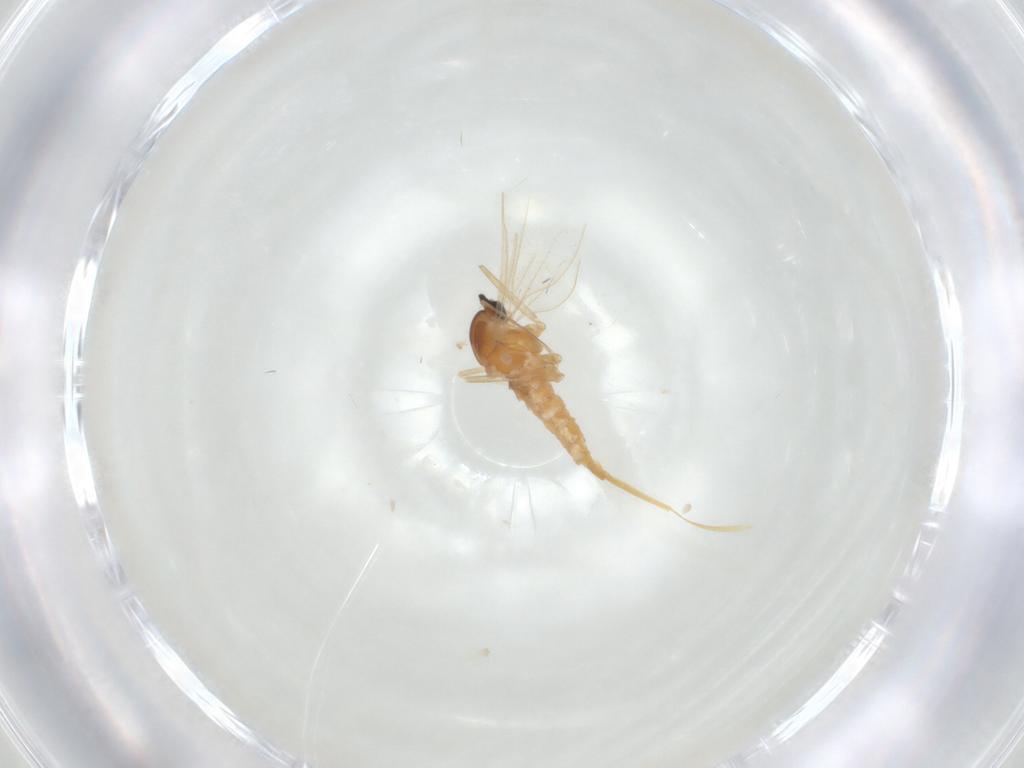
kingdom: Animalia
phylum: Arthropoda
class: Insecta
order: Diptera
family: Cecidomyiidae
